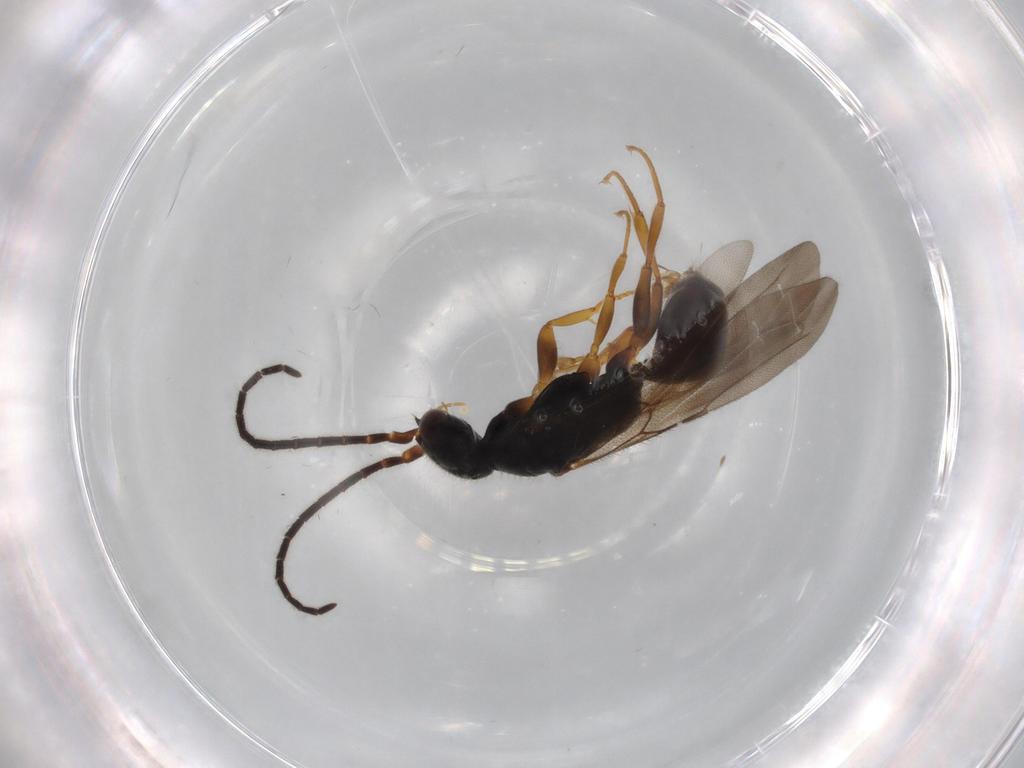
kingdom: Animalia
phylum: Arthropoda
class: Insecta
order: Hymenoptera
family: Bethylidae
